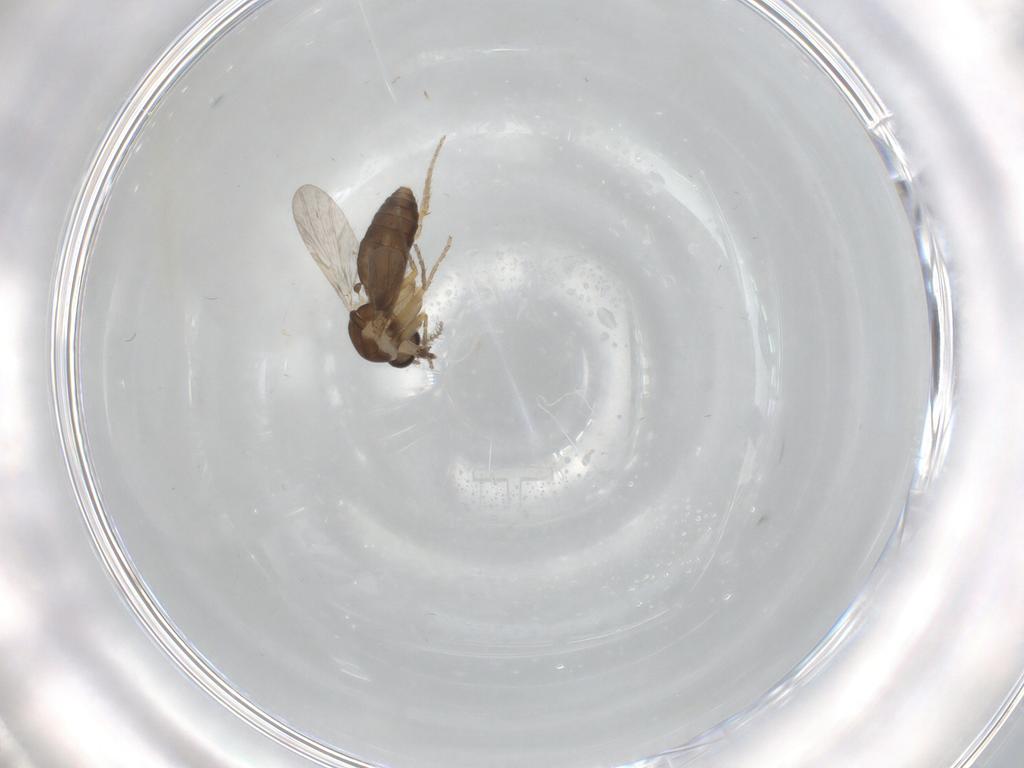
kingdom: Animalia
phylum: Arthropoda
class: Insecta
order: Diptera
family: Ceratopogonidae
